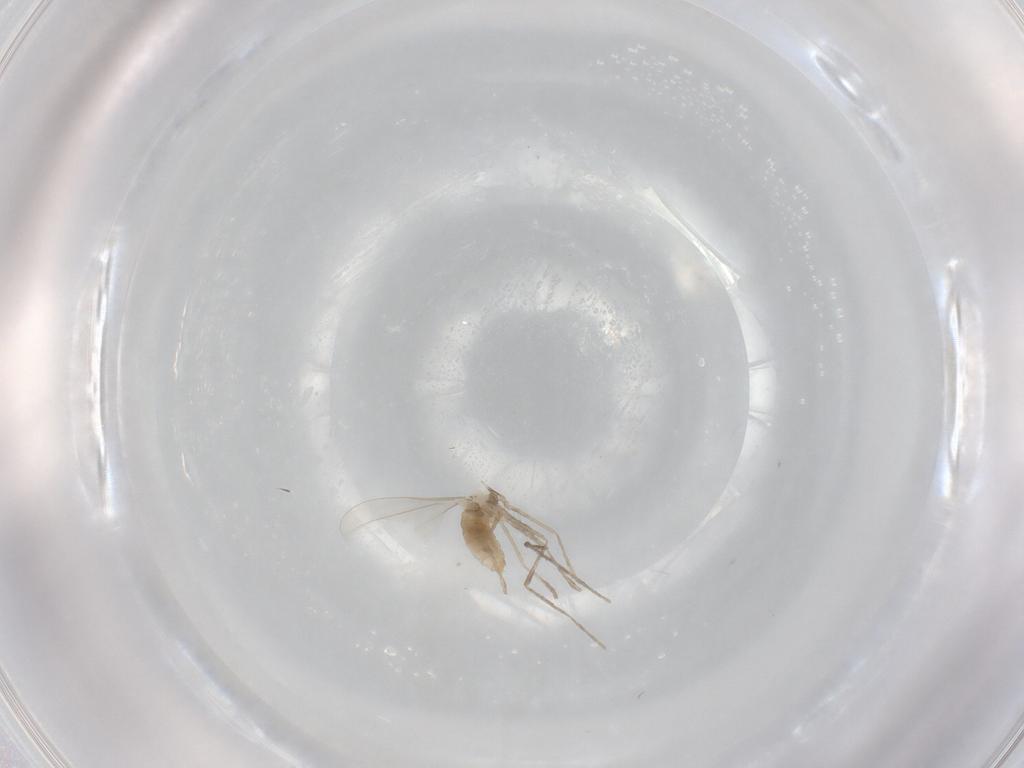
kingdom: Animalia
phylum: Arthropoda
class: Insecta
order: Diptera
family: Cecidomyiidae
